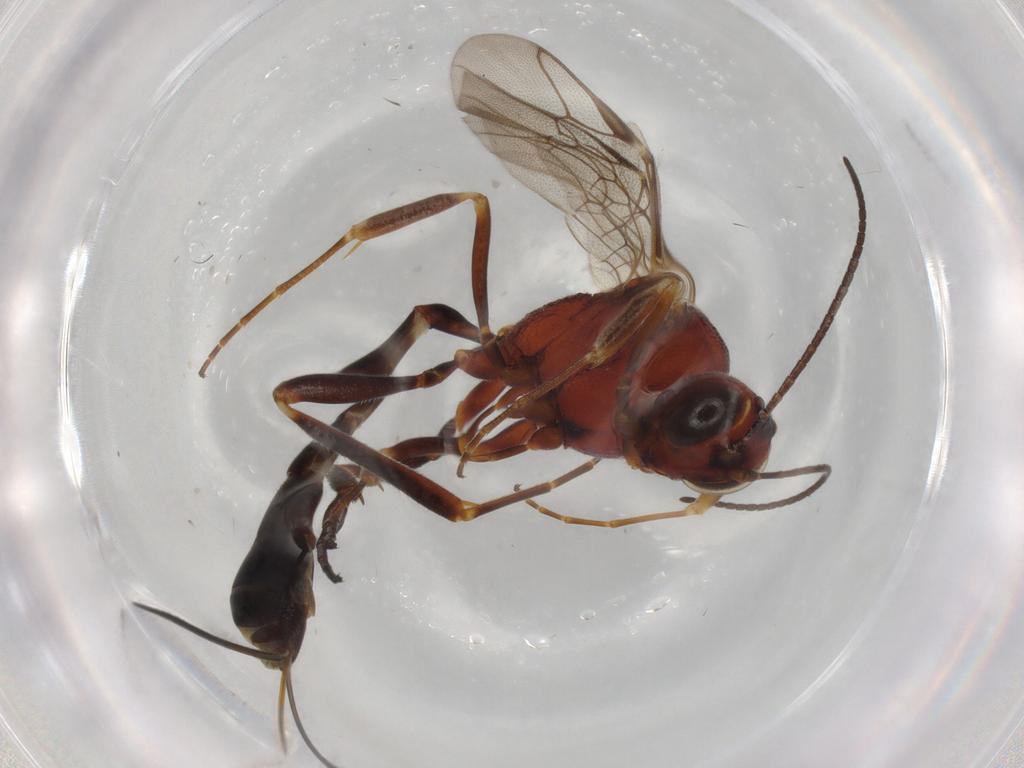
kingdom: Animalia
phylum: Arthropoda
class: Insecta
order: Hymenoptera
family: Ichneumonidae
